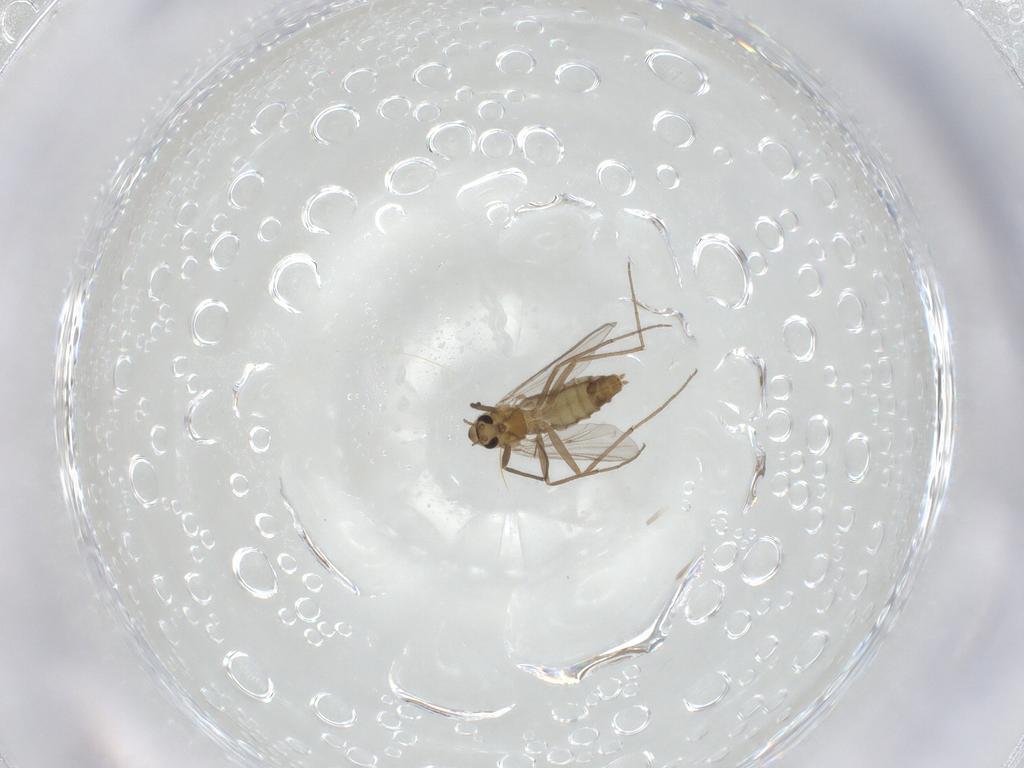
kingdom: Animalia
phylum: Arthropoda
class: Insecta
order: Diptera
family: Chironomidae
